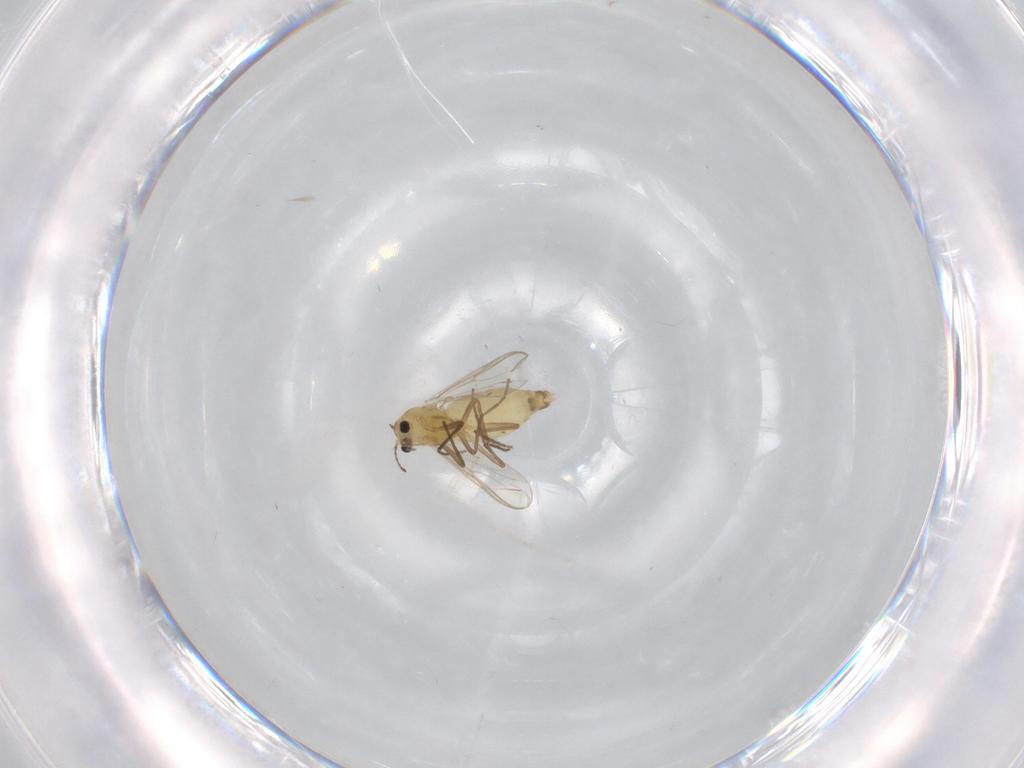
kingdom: Animalia
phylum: Arthropoda
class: Insecta
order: Diptera
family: Chironomidae
